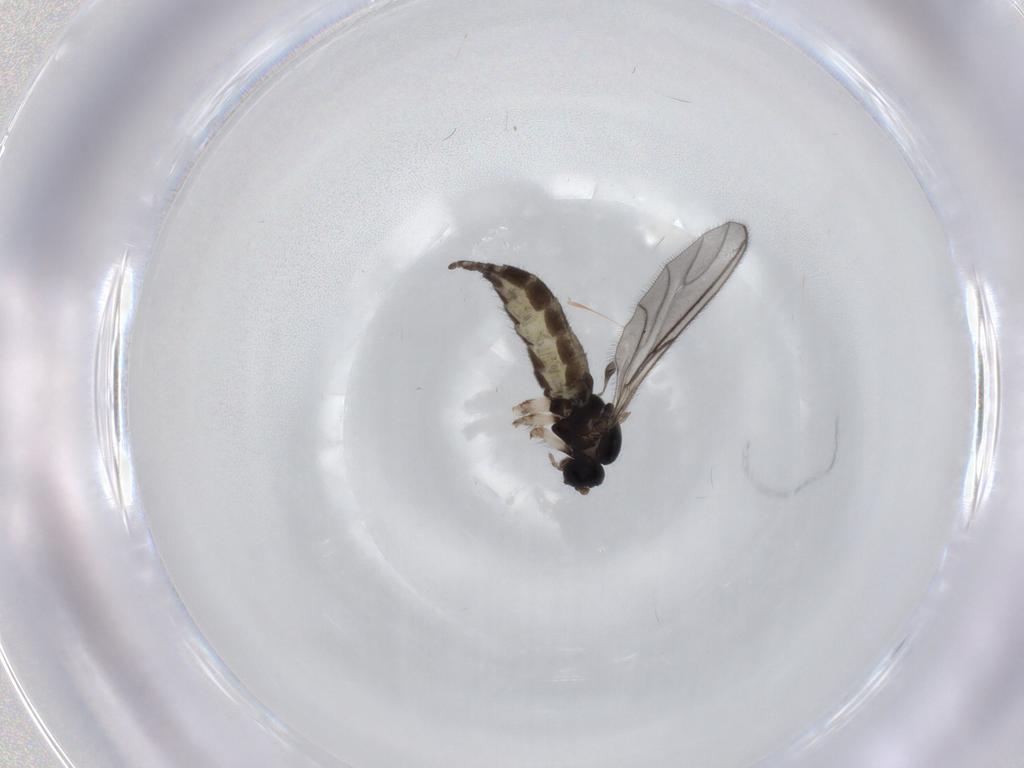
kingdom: Animalia
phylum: Arthropoda
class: Insecta
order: Diptera
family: Sciaridae
